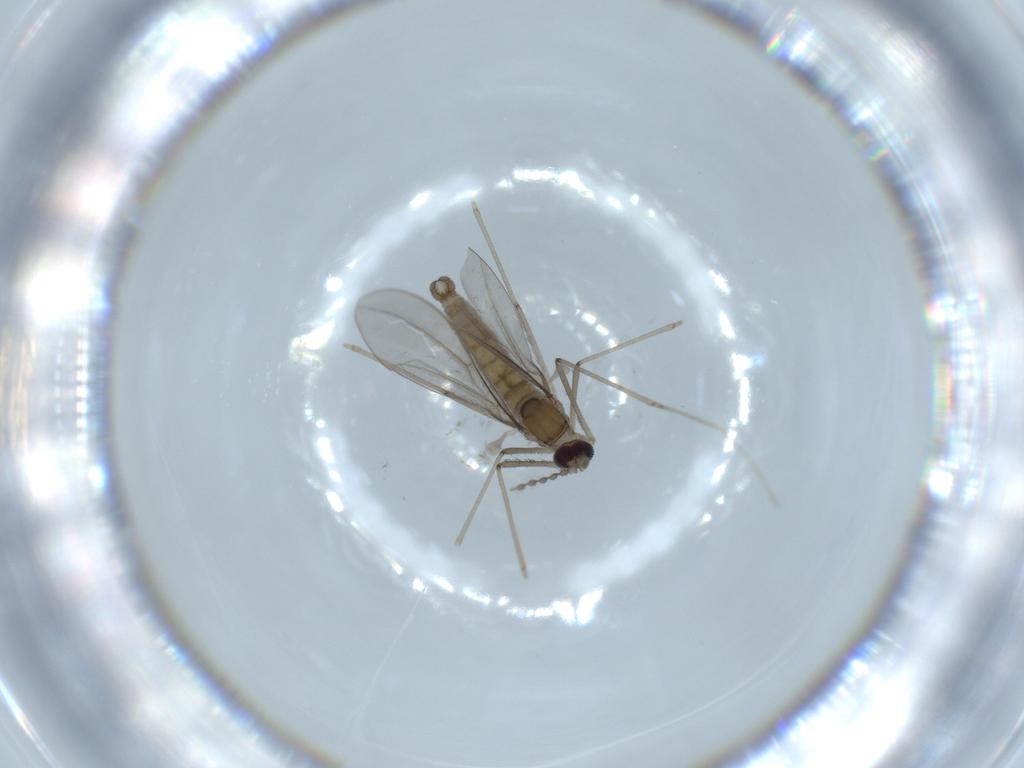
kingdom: Animalia
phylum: Arthropoda
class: Insecta
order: Diptera
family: Cecidomyiidae
